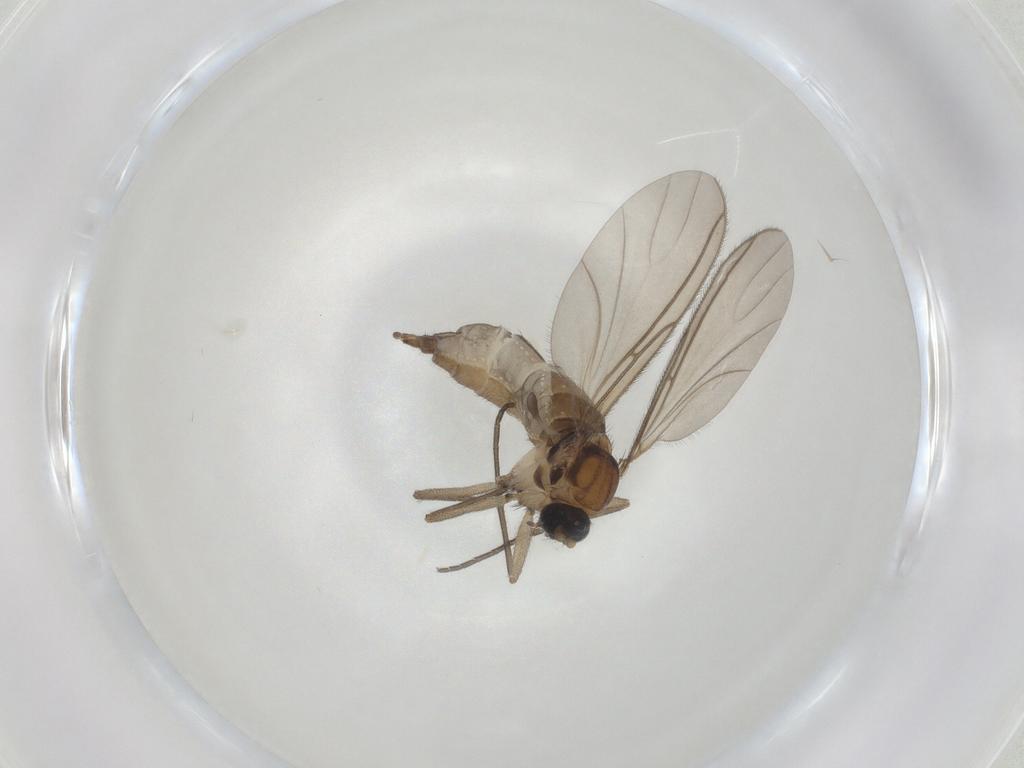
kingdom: Animalia
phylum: Arthropoda
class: Insecta
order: Diptera
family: Sciaridae
